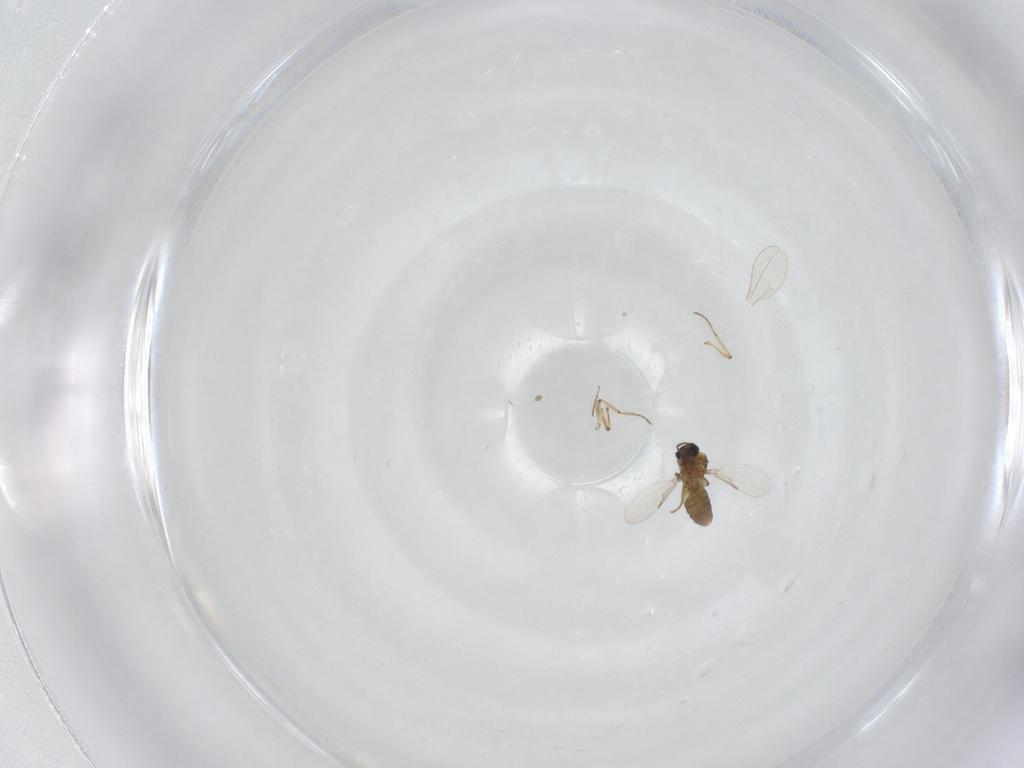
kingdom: Animalia
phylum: Arthropoda
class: Insecta
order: Diptera
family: Ceratopogonidae
